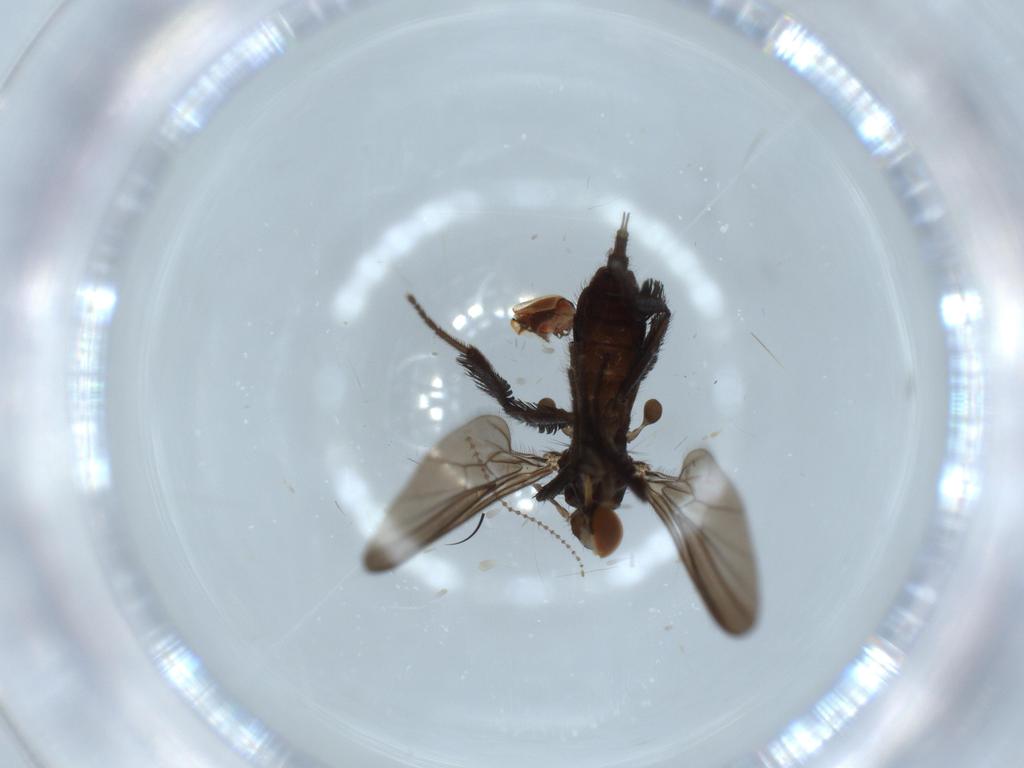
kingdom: Animalia
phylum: Arthropoda
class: Insecta
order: Diptera
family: Empididae
